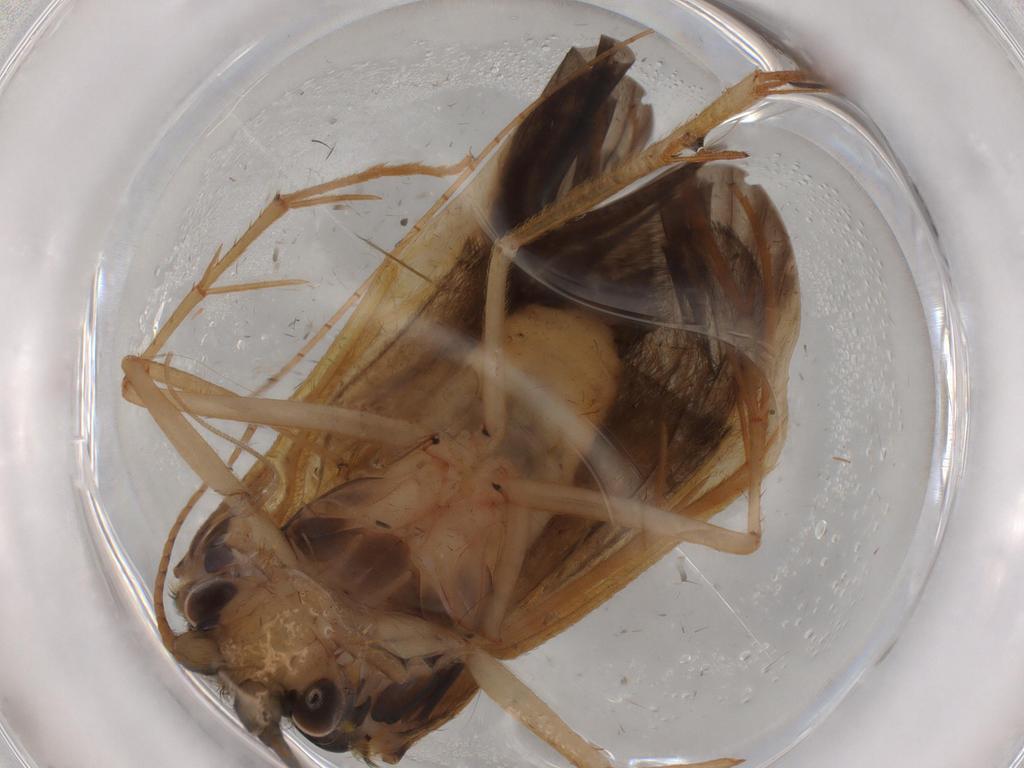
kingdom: Animalia
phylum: Arthropoda
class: Insecta
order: Trichoptera
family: Hydropsychidae
